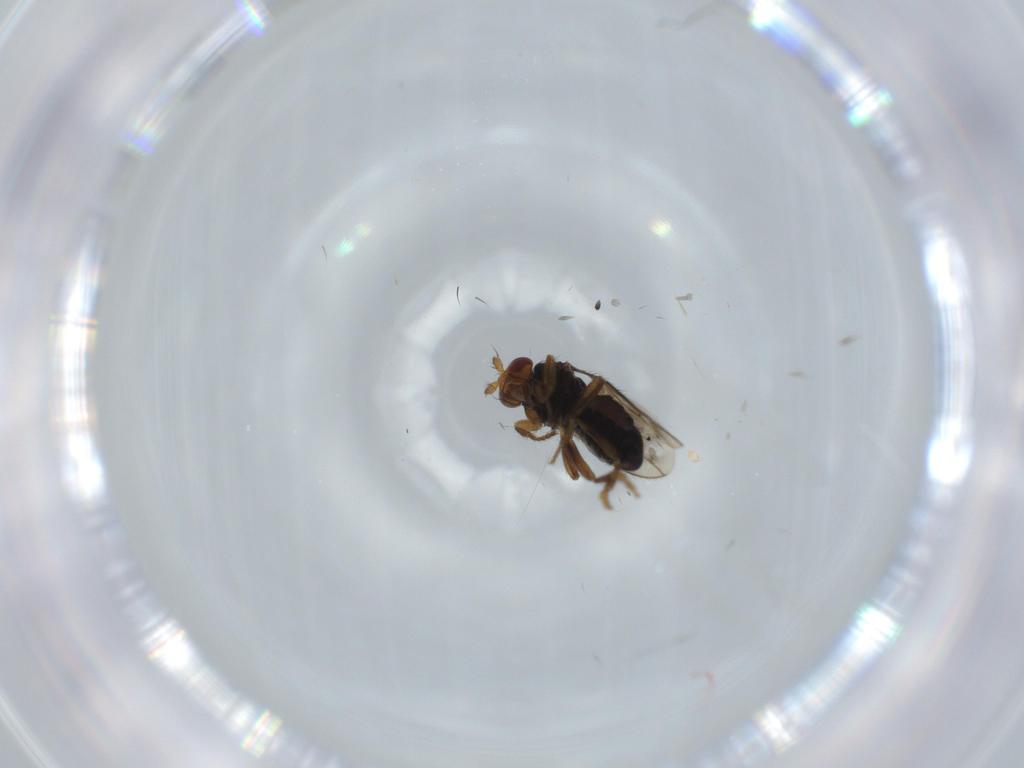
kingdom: Animalia
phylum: Arthropoda
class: Insecta
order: Diptera
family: Sphaeroceridae
